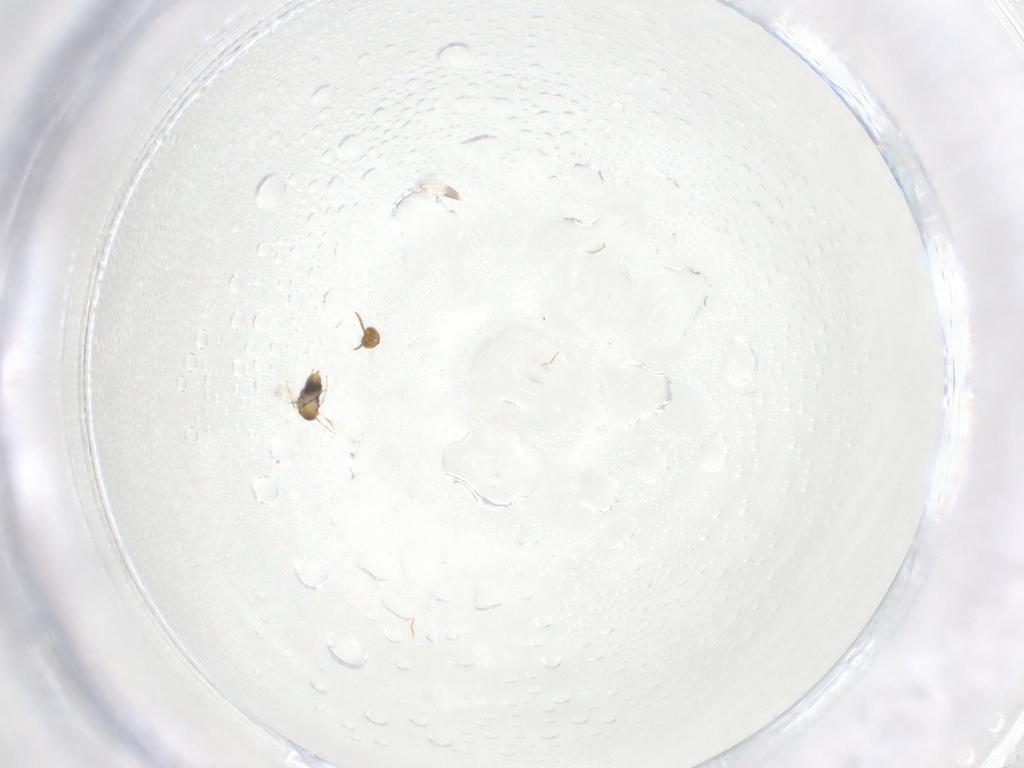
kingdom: Animalia
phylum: Arthropoda
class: Insecta
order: Hymenoptera
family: Aphelinidae
